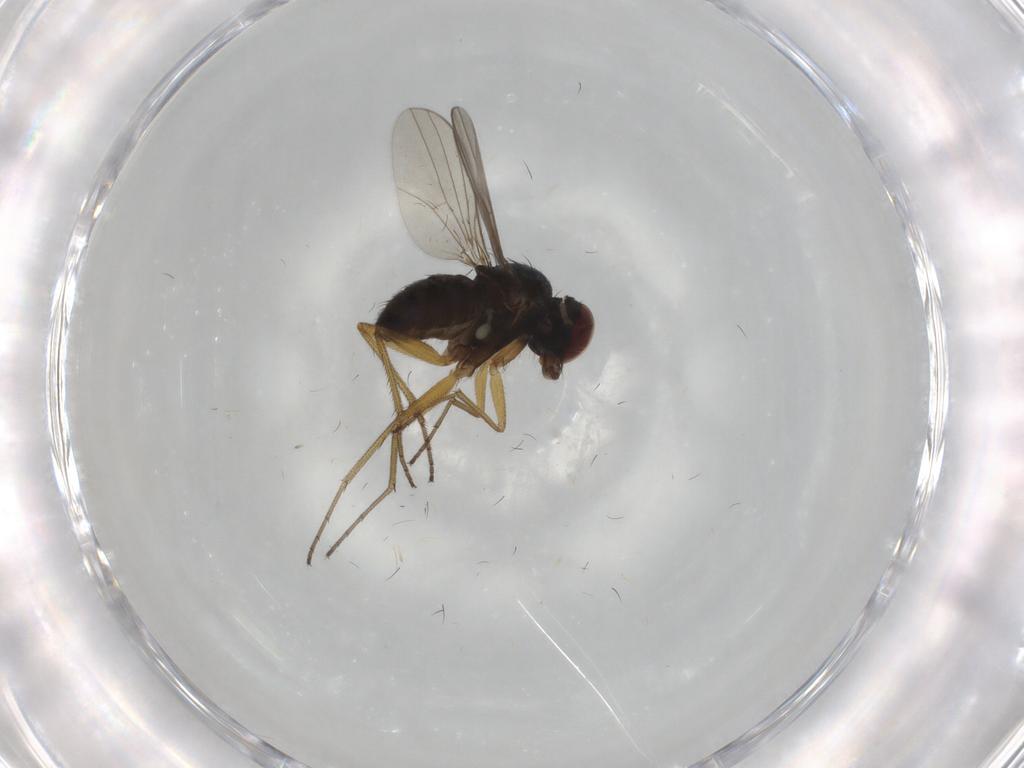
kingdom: Animalia
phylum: Arthropoda
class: Insecta
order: Diptera
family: Dolichopodidae
